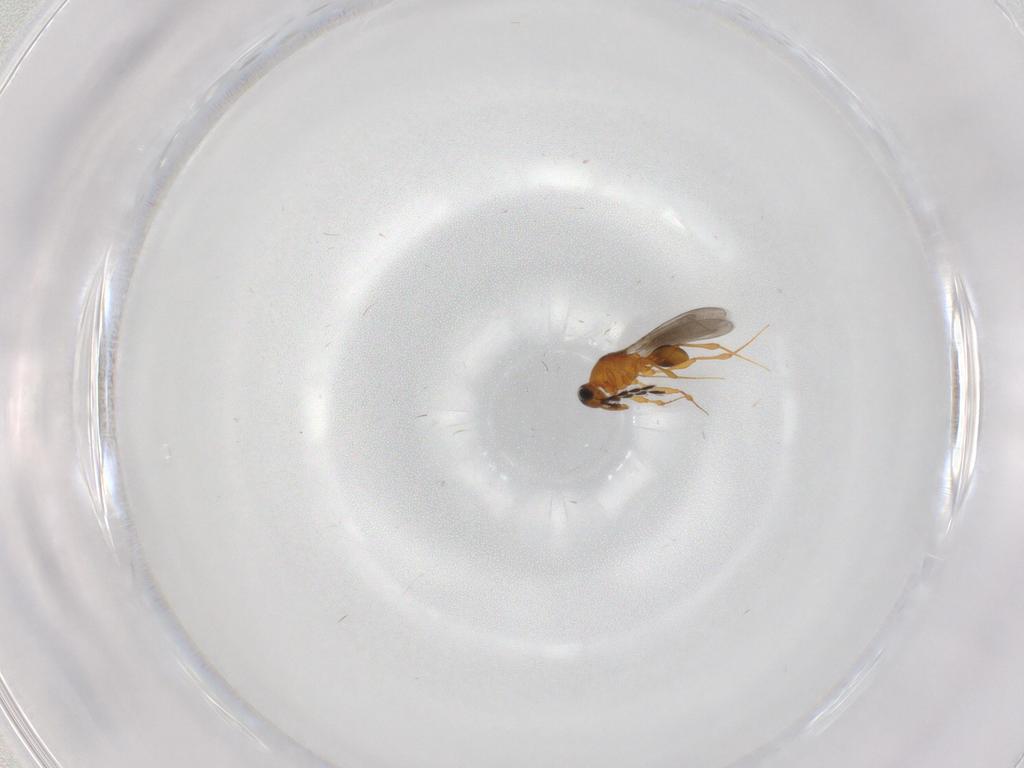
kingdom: Animalia
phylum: Arthropoda
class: Insecta
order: Hymenoptera
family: Platygastridae
